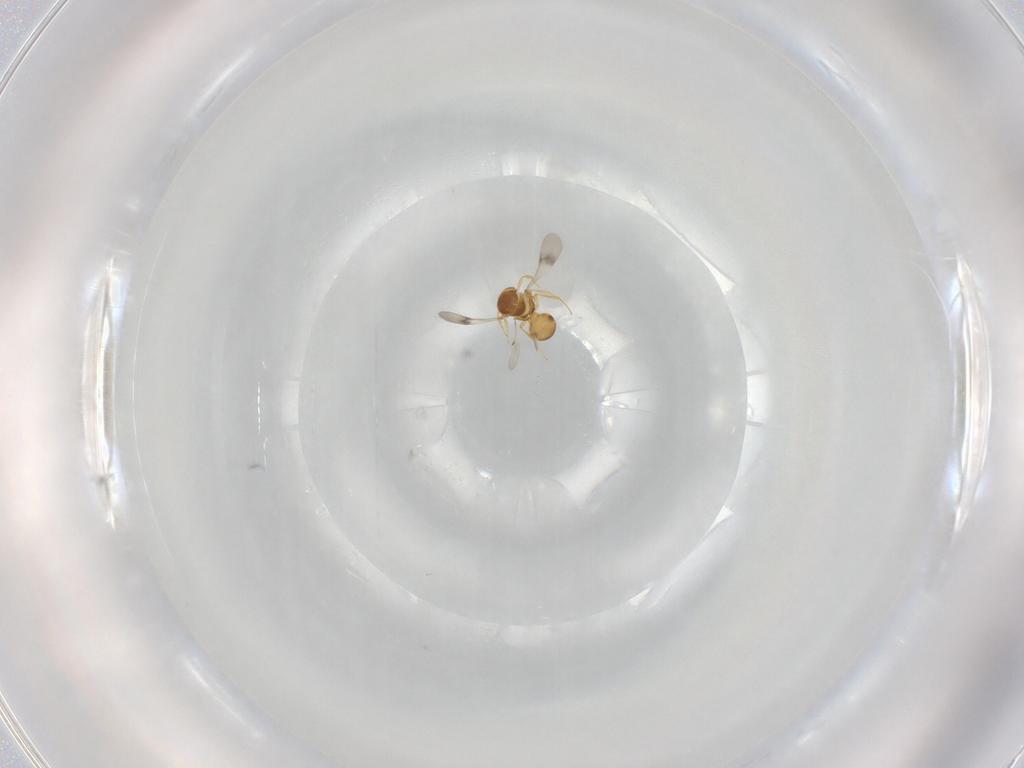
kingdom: Animalia
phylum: Arthropoda
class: Insecta
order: Hymenoptera
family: Scelionidae
